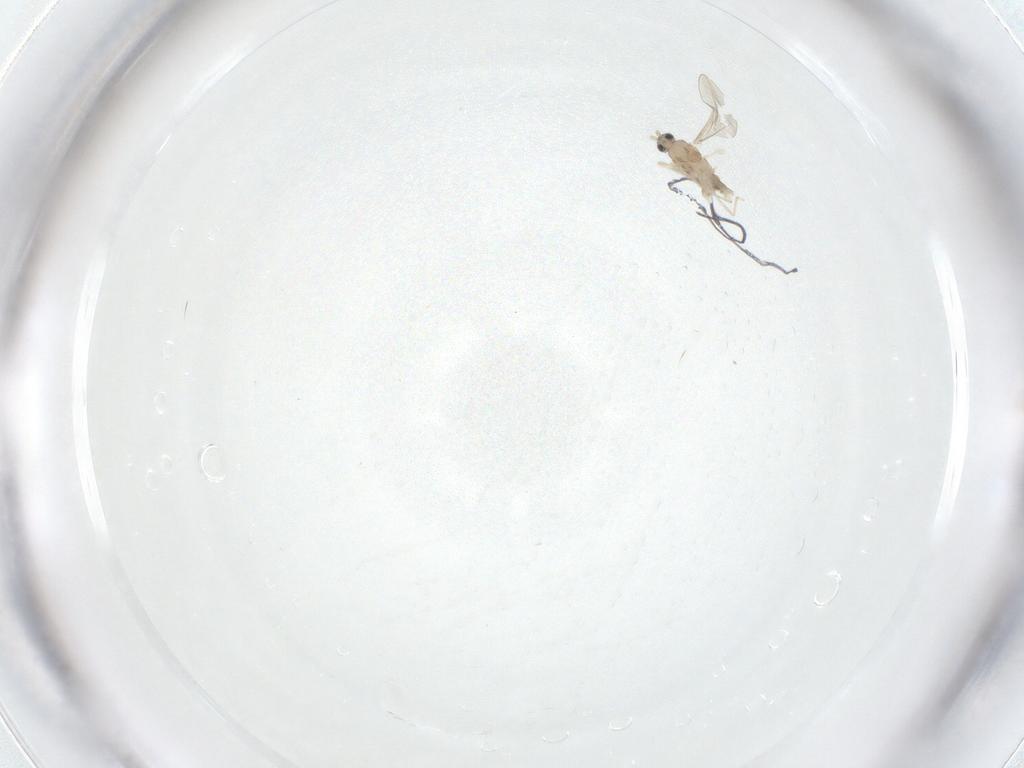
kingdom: Animalia
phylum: Arthropoda
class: Insecta
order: Diptera
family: Cecidomyiidae
